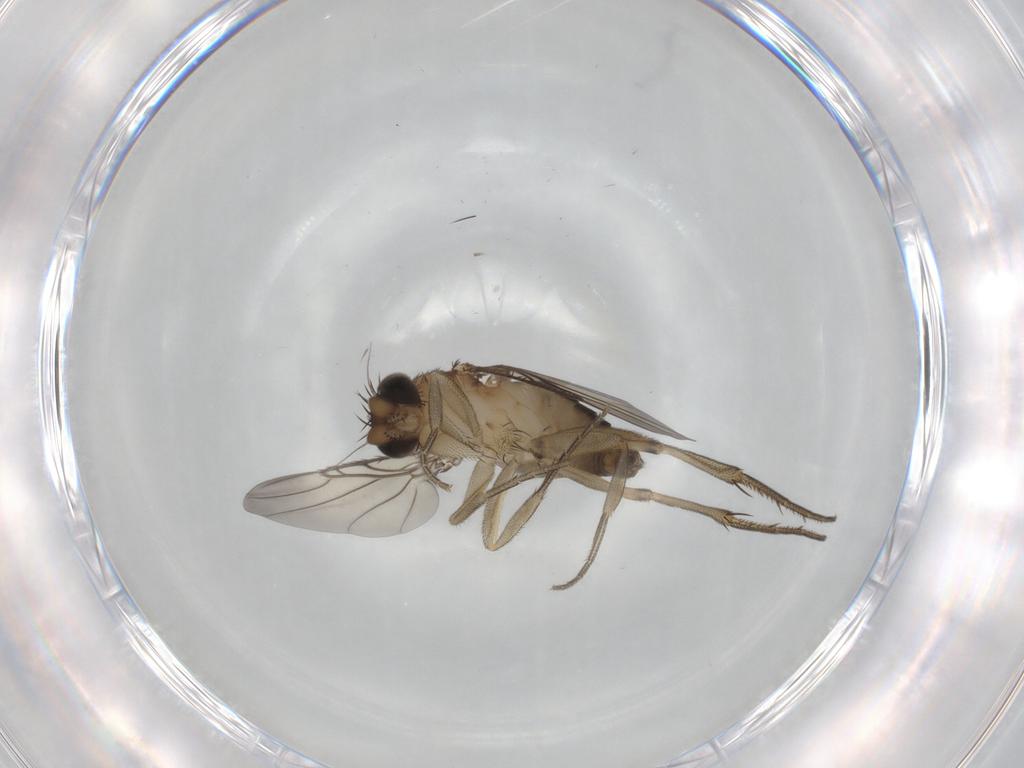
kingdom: Animalia
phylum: Arthropoda
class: Insecta
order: Diptera
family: Phoridae
